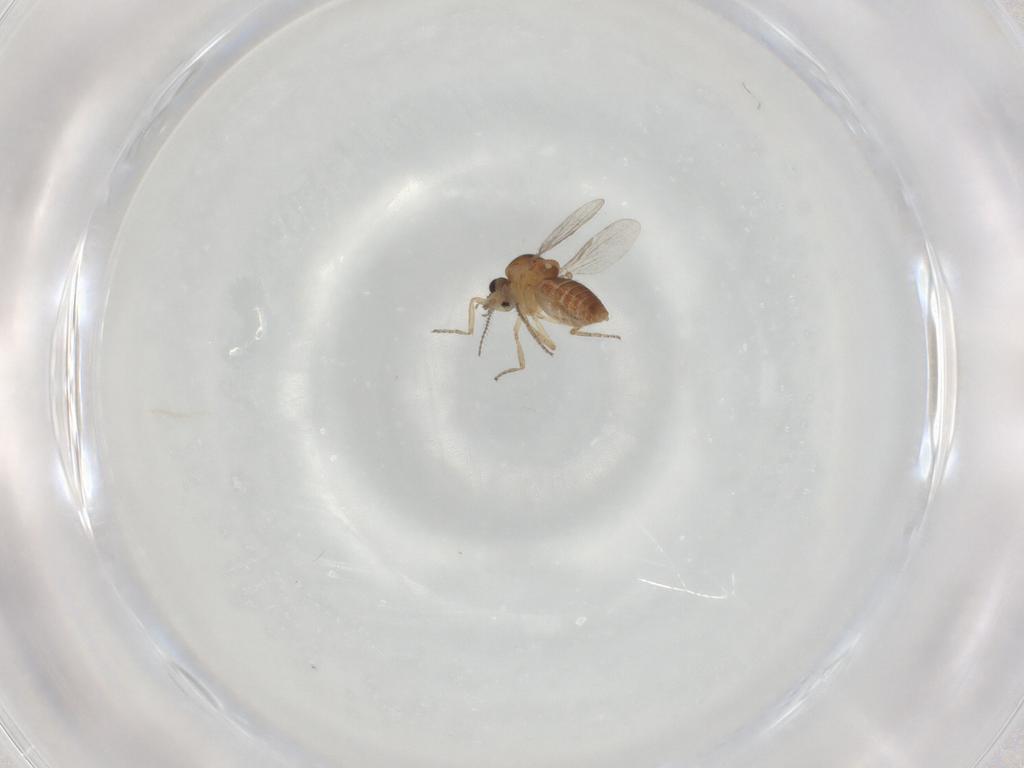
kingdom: Animalia
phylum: Arthropoda
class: Insecta
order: Diptera
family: Ceratopogonidae
